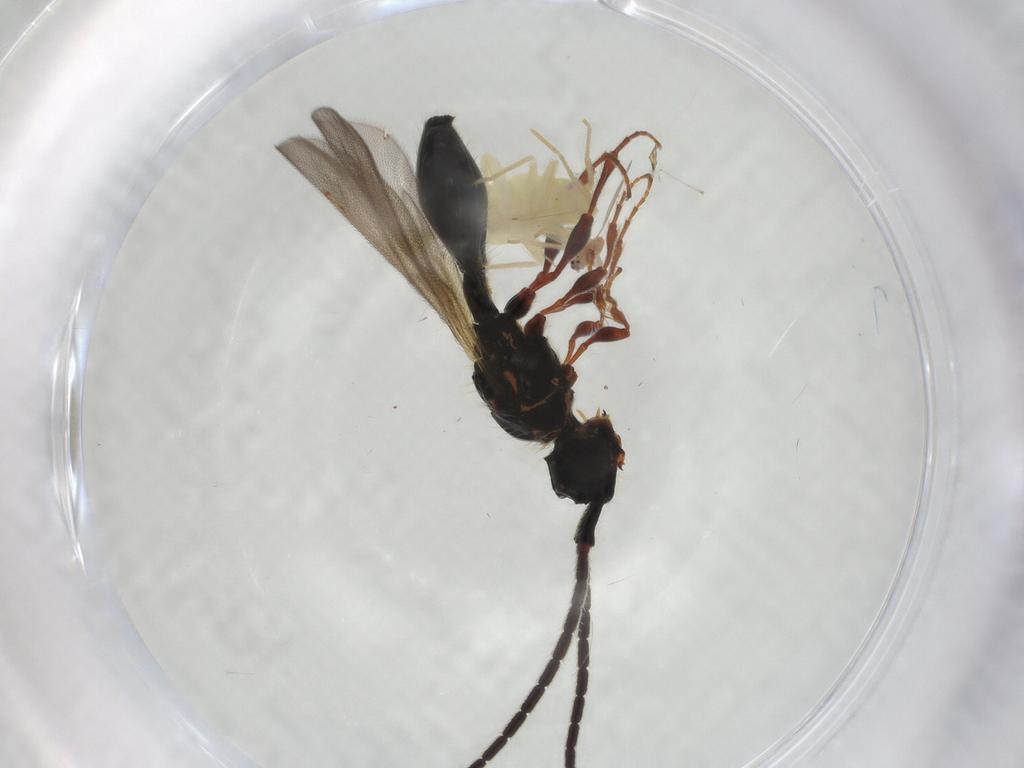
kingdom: Animalia
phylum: Arthropoda
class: Insecta
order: Hymenoptera
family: Diapriidae
